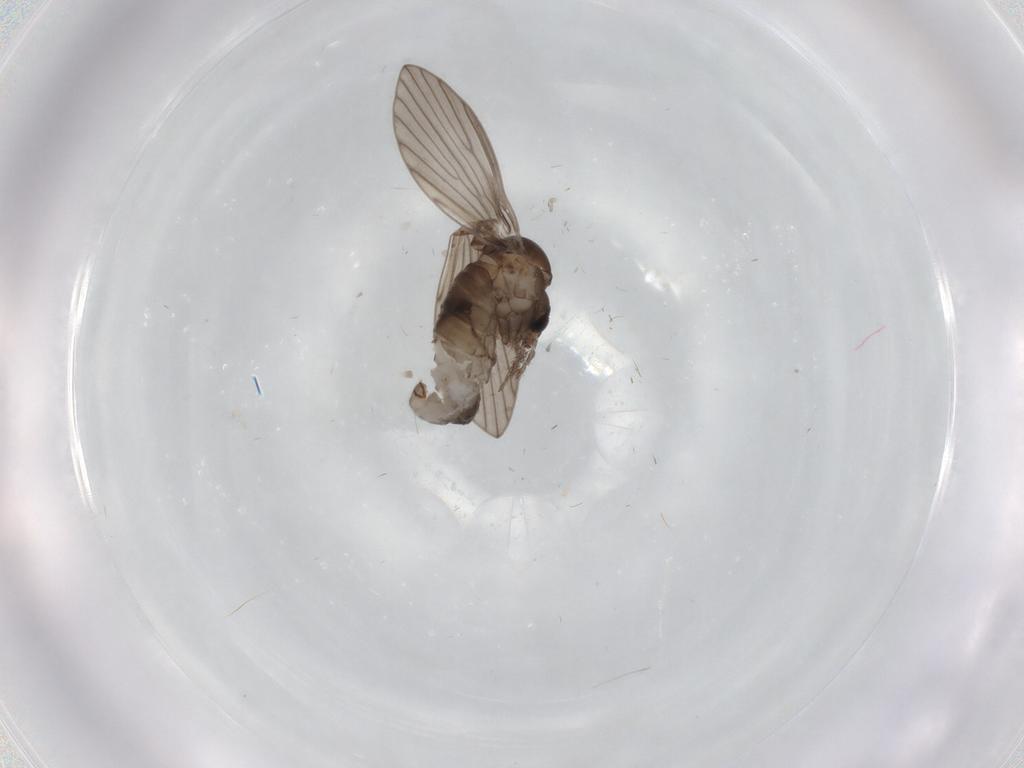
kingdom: Animalia
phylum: Arthropoda
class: Insecta
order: Diptera
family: Psychodidae
